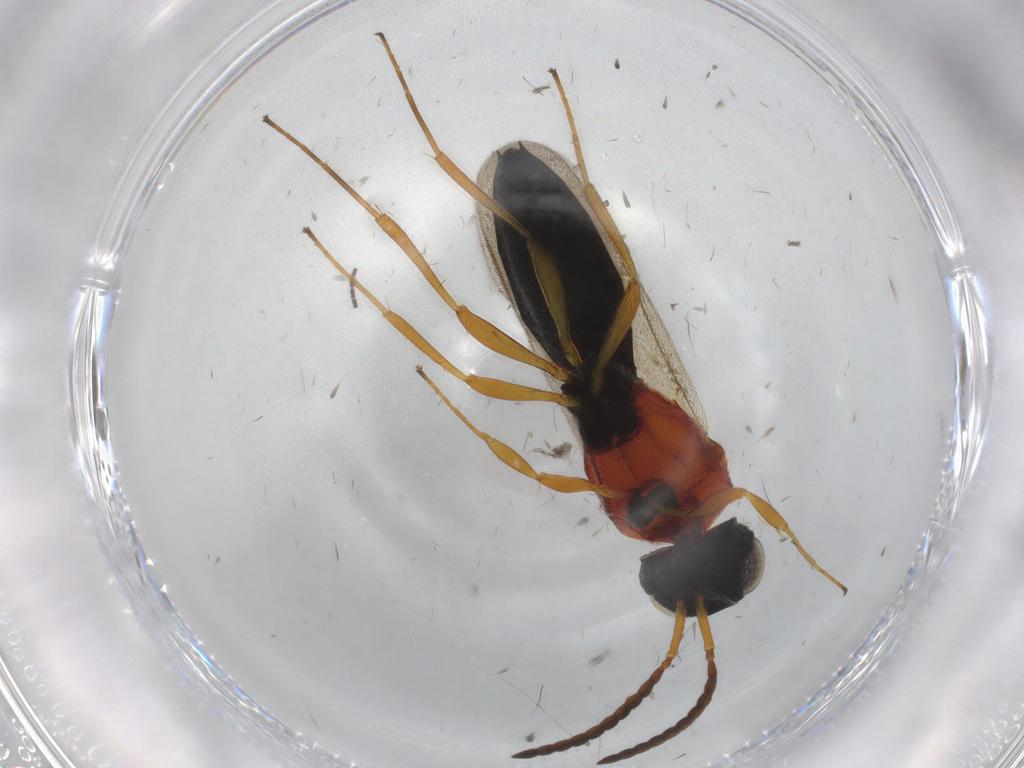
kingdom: Animalia
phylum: Arthropoda
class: Insecta
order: Hymenoptera
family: Scelionidae
